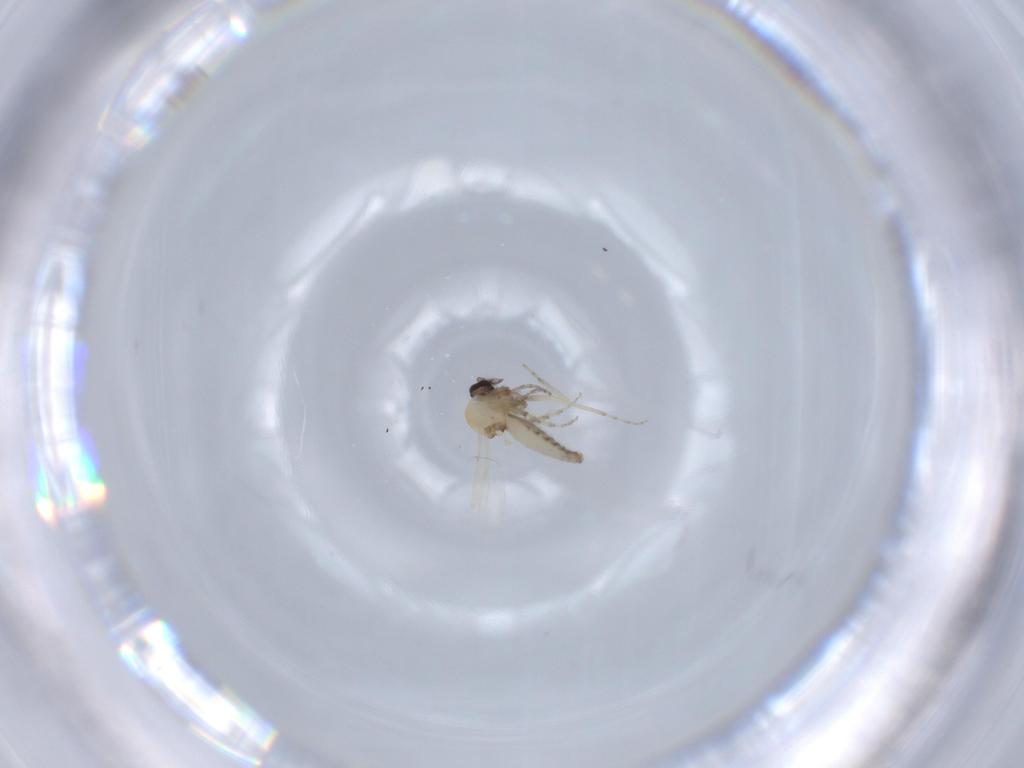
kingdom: Animalia
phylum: Arthropoda
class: Insecta
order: Diptera
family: Ceratopogonidae
